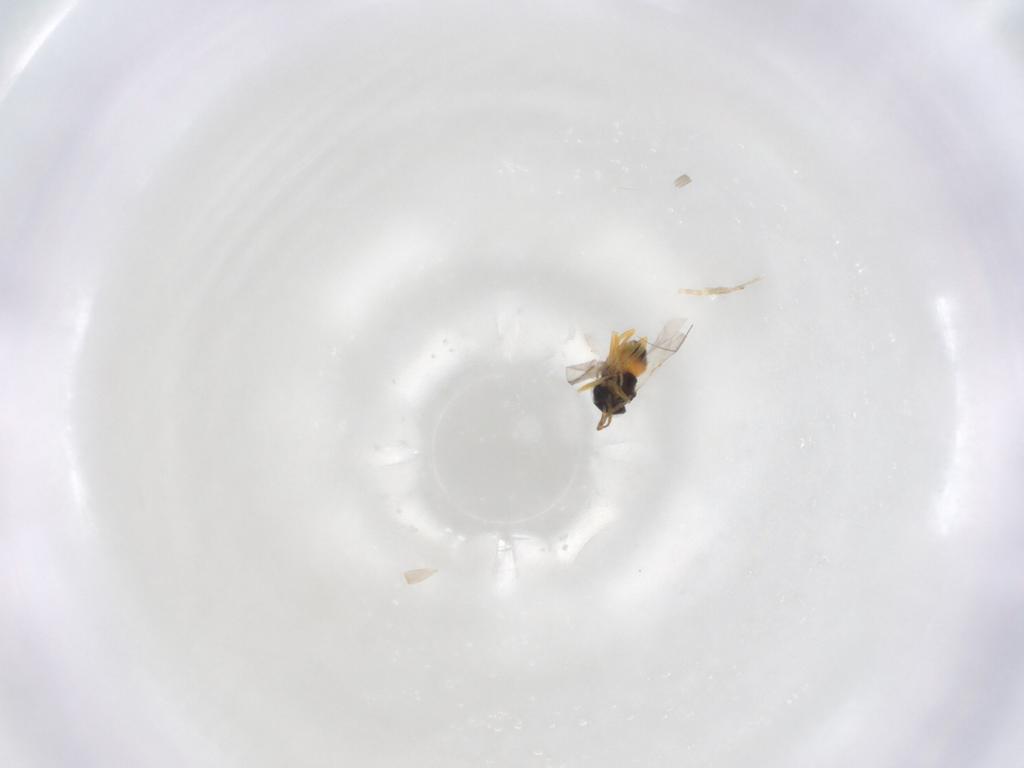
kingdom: Animalia
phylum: Arthropoda
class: Insecta
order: Hymenoptera
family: Encyrtidae
